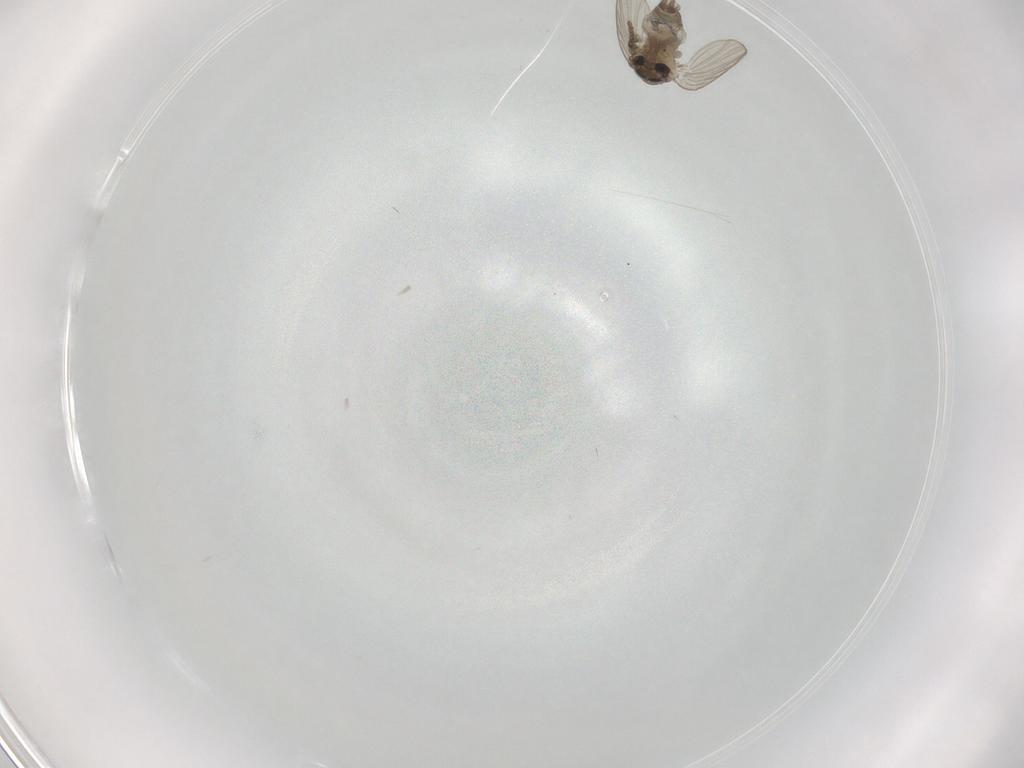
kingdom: Animalia
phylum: Arthropoda
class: Insecta
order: Diptera
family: Psychodidae
